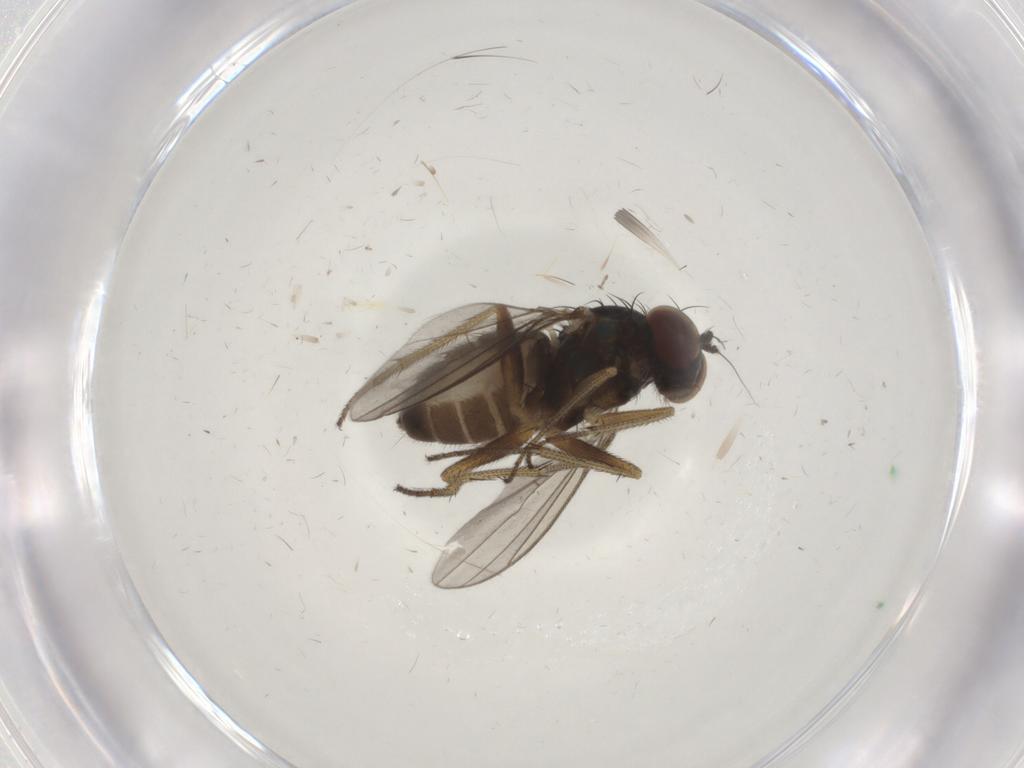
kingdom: Animalia
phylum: Arthropoda
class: Insecta
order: Diptera
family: Dolichopodidae
